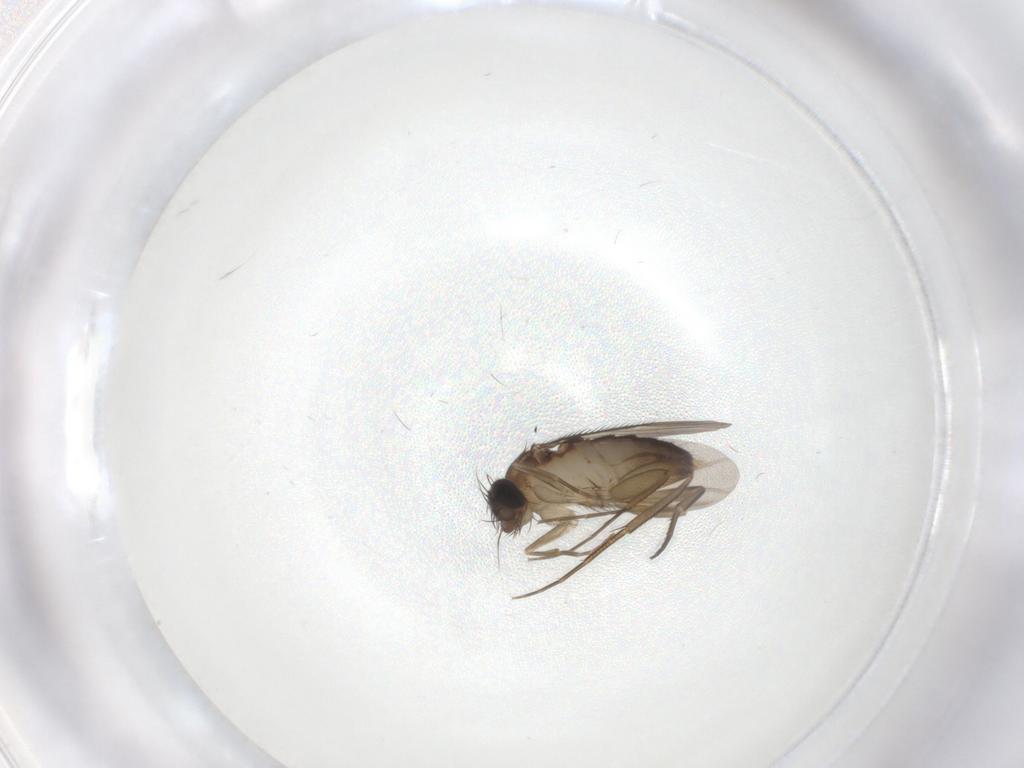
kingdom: Animalia
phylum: Arthropoda
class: Insecta
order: Diptera
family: Phoridae
